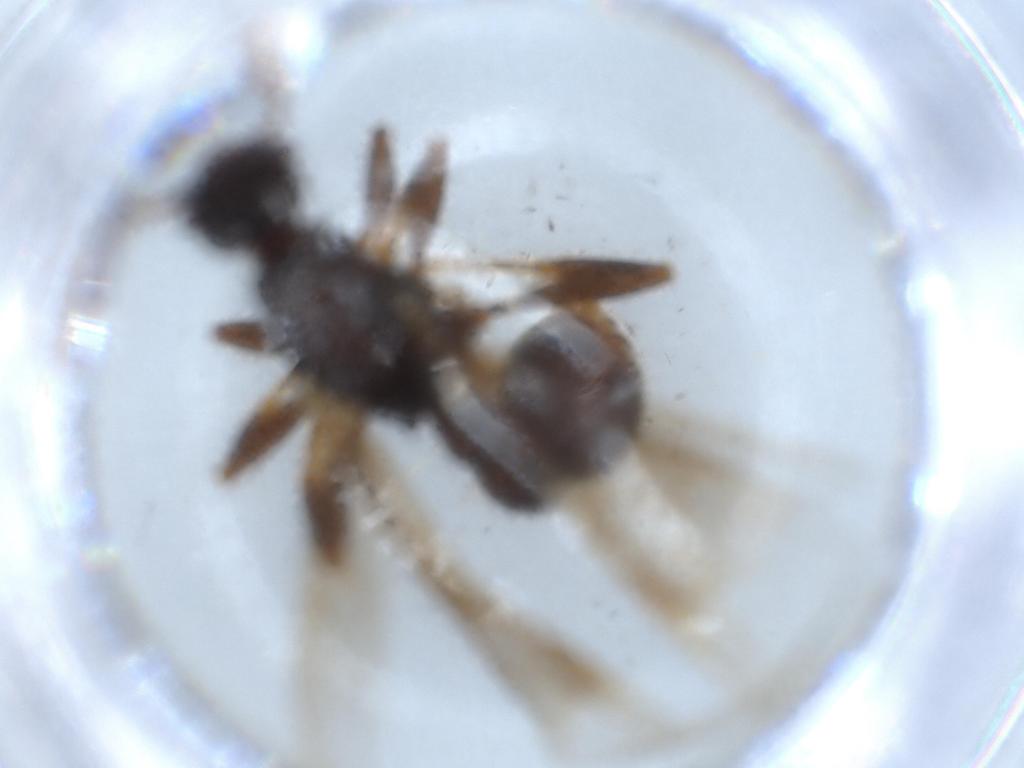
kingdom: Animalia
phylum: Arthropoda
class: Insecta
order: Hymenoptera
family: Formicidae
